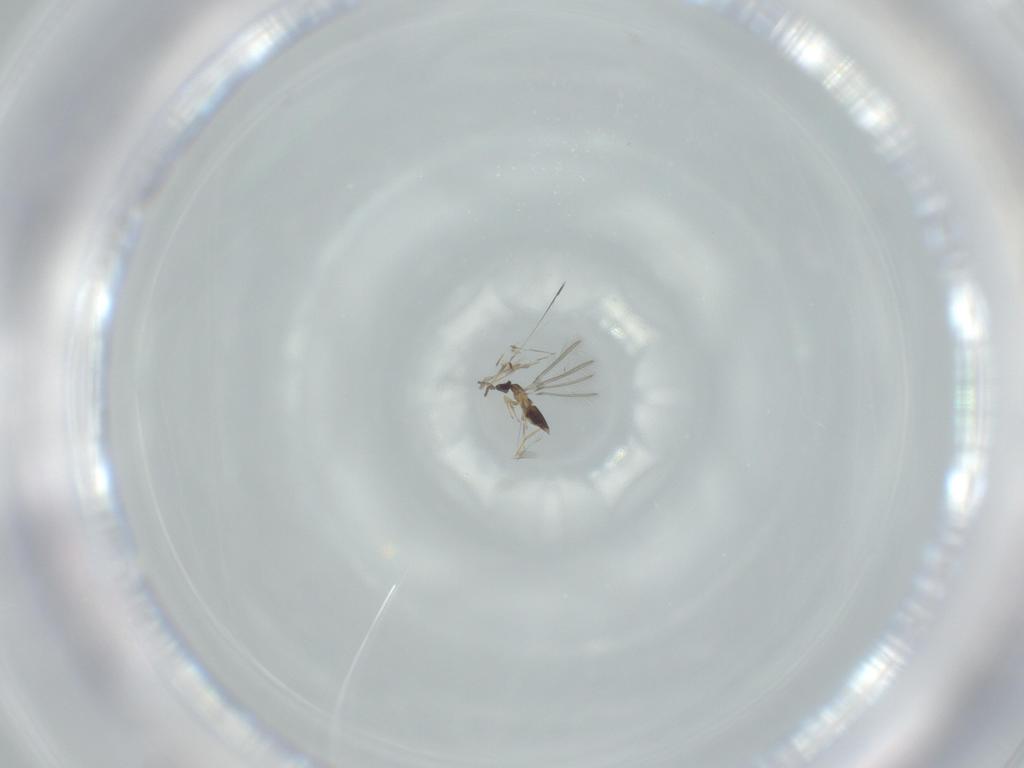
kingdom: Animalia
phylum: Arthropoda
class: Insecta
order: Hymenoptera
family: Mymaridae
